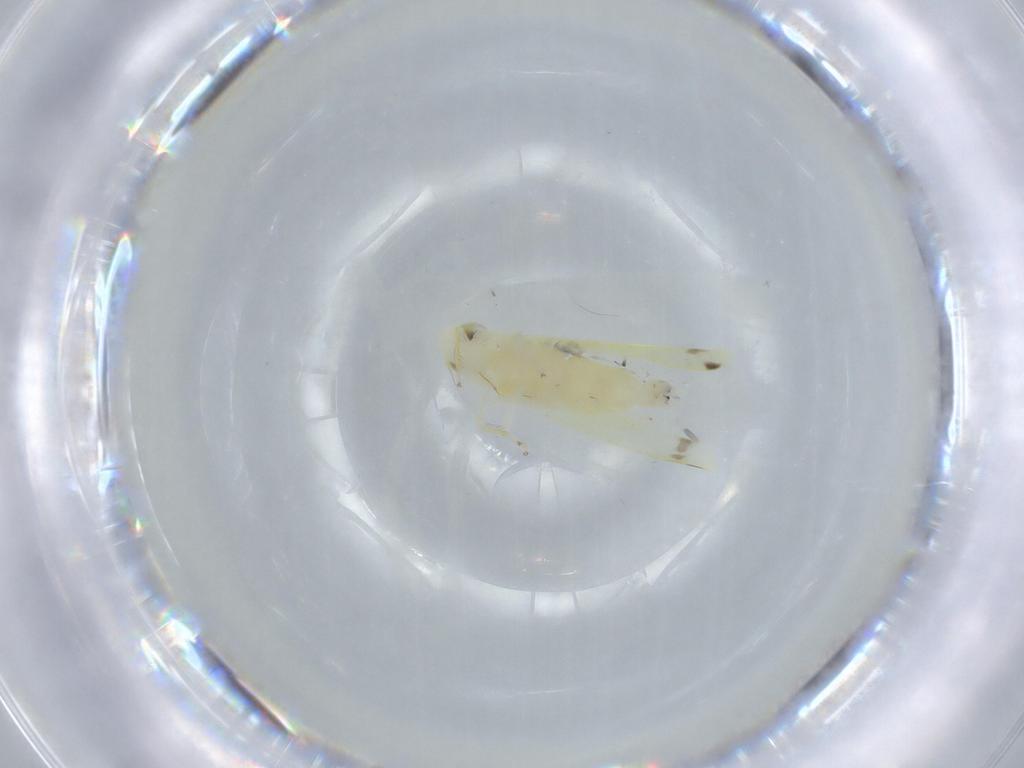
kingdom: Animalia
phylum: Arthropoda
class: Insecta
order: Hemiptera
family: Cicadellidae
